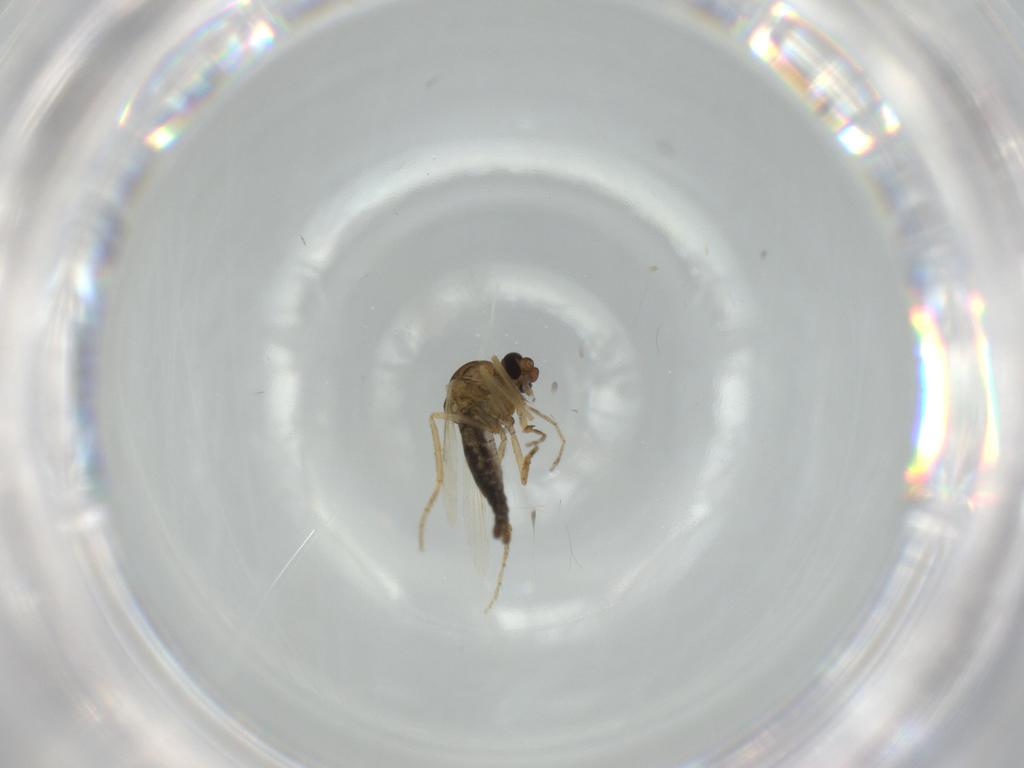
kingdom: Animalia
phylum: Arthropoda
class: Insecta
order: Diptera
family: Ceratopogonidae
